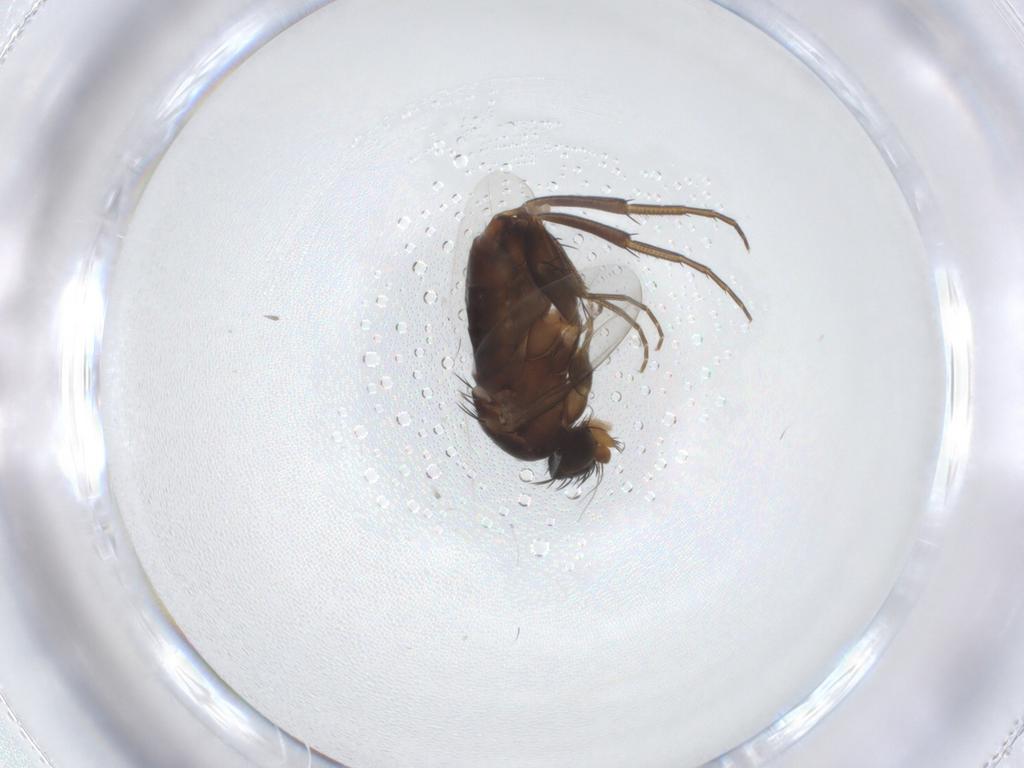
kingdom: Animalia
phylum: Arthropoda
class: Insecta
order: Diptera
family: Phoridae
